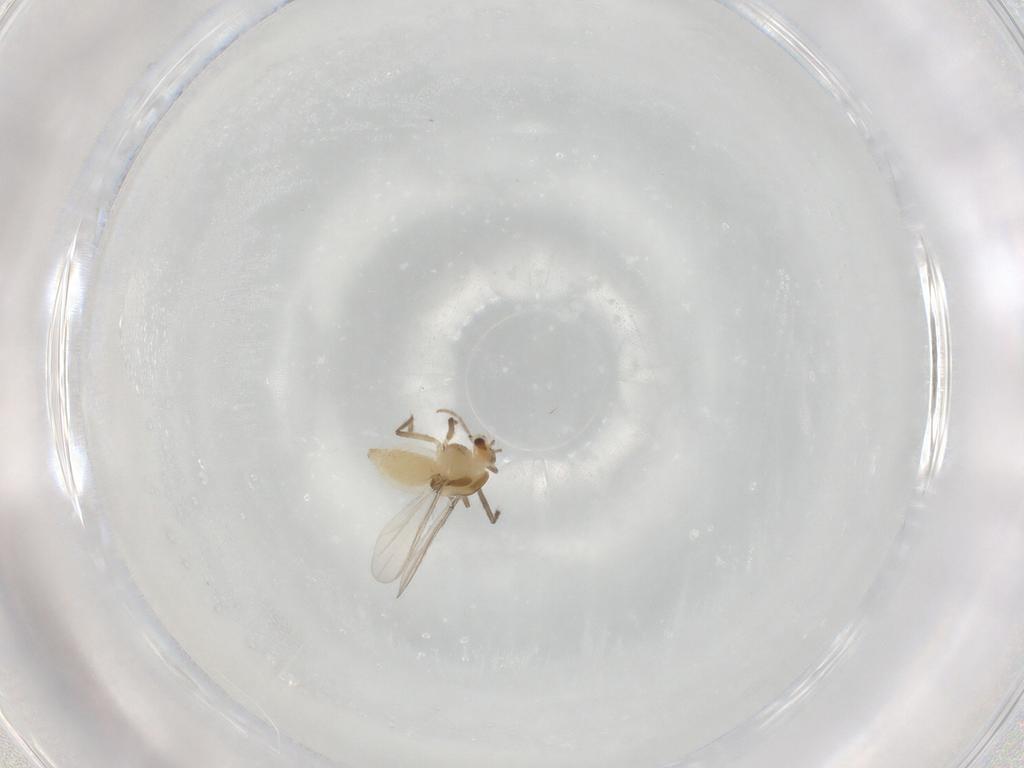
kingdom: Animalia
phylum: Arthropoda
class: Insecta
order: Diptera
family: Chironomidae
